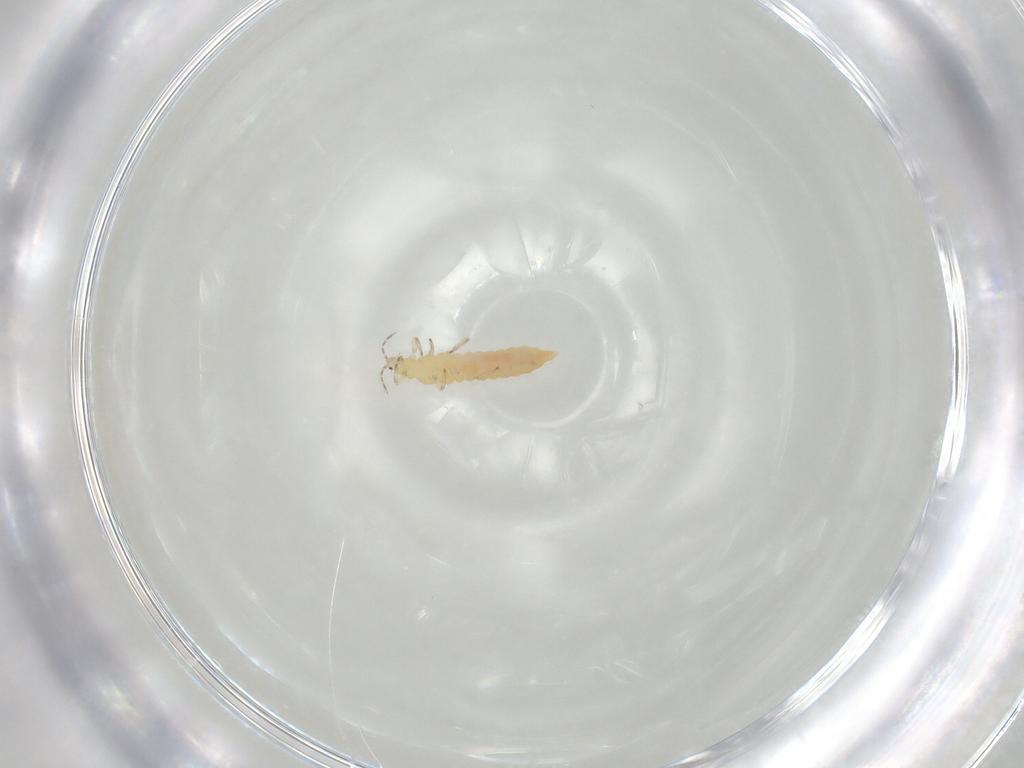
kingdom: Animalia
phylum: Arthropoda
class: Insecta
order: Thysanoptera
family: Aeolothripidae
